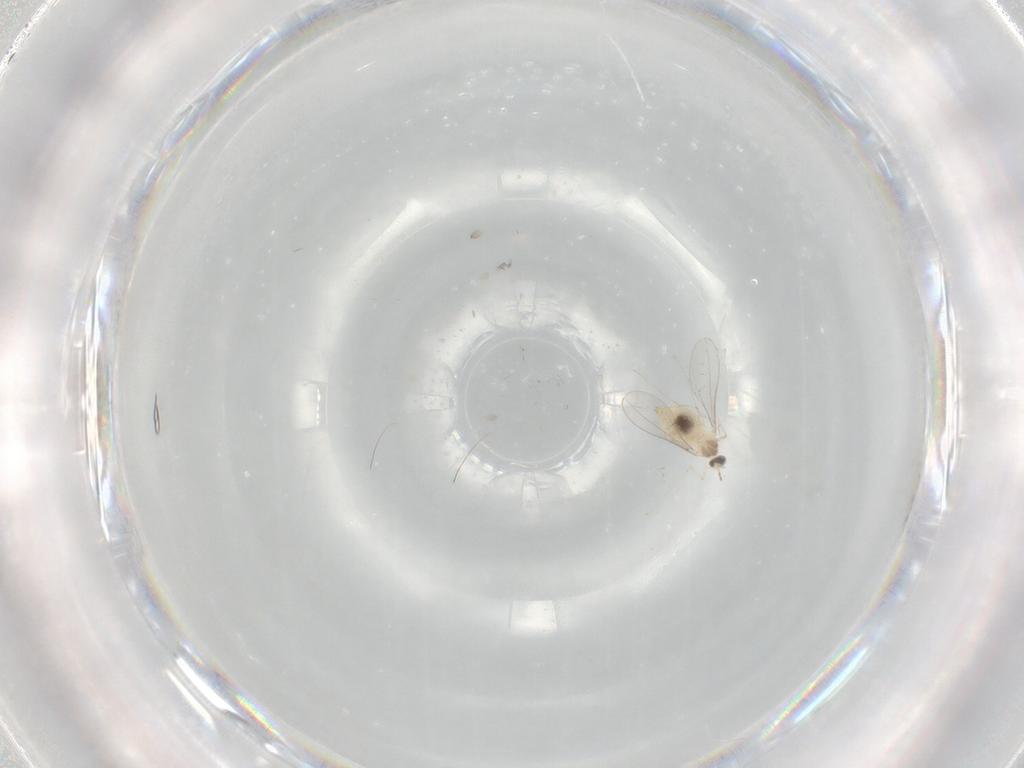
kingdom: Animalia
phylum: Arthropoda
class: Insecta
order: Diptera
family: Cecidomyiidae
